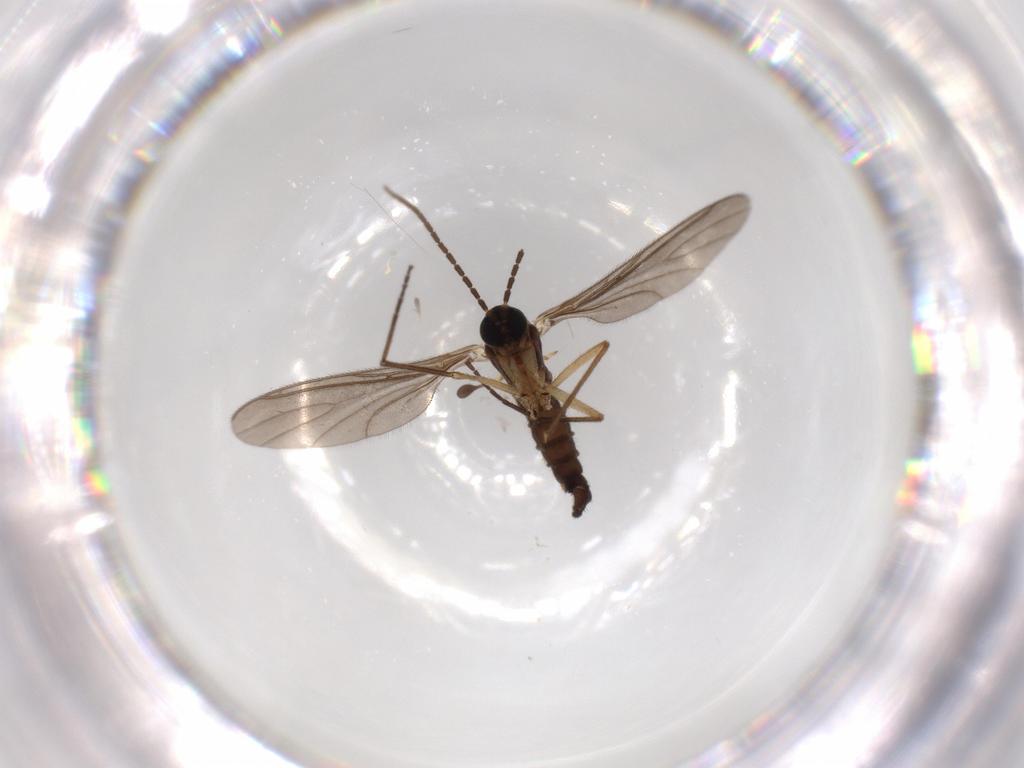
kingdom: Animalia
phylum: Arthropoda
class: Insecta
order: Diptera
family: Sciaridae
